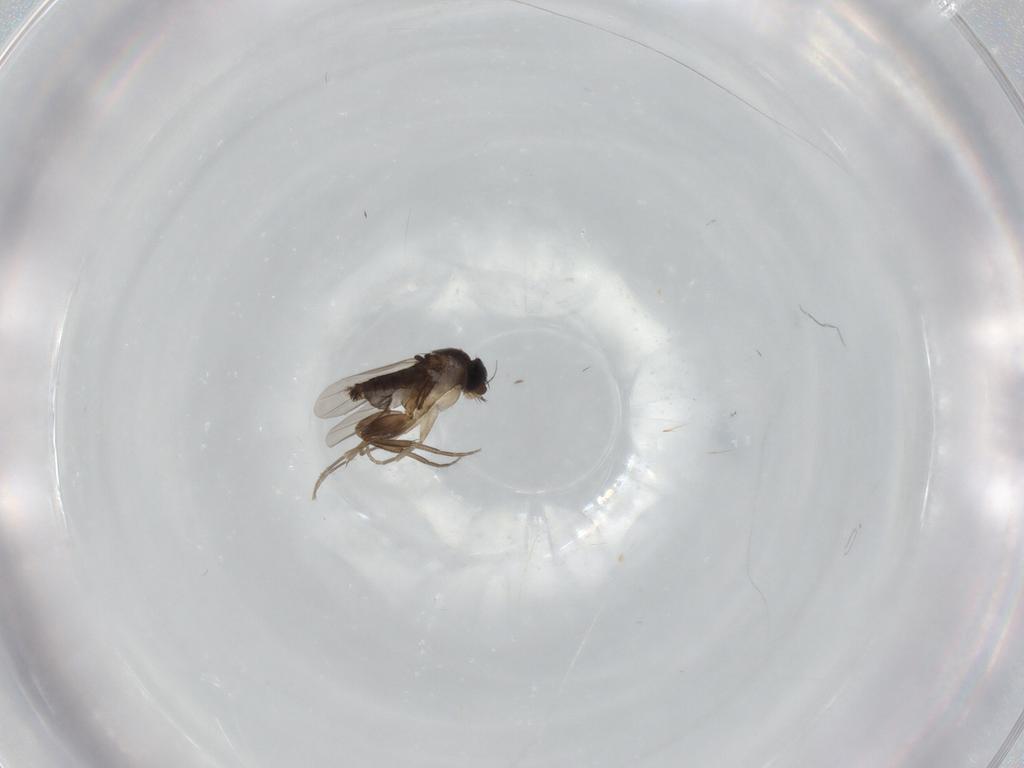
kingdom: Animalia
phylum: Arthropoda
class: Insecta
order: Diptera
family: Phoridae
